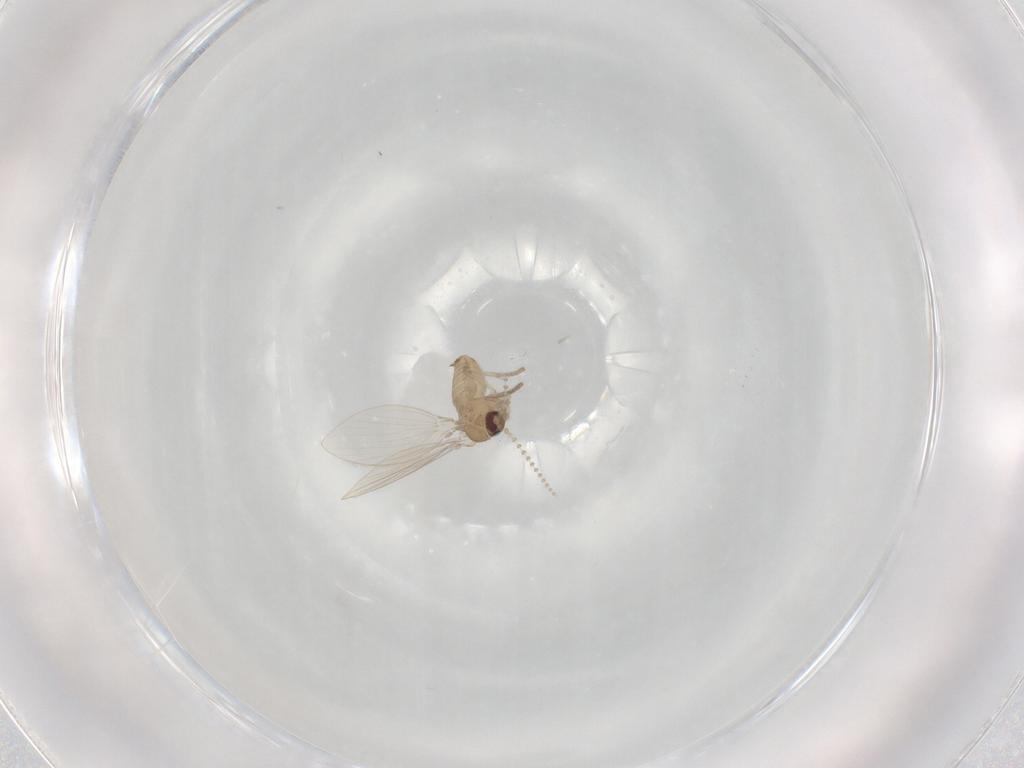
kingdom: Animalia
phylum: Arthropoda
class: Insecta
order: Diptera
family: Psychodidae
